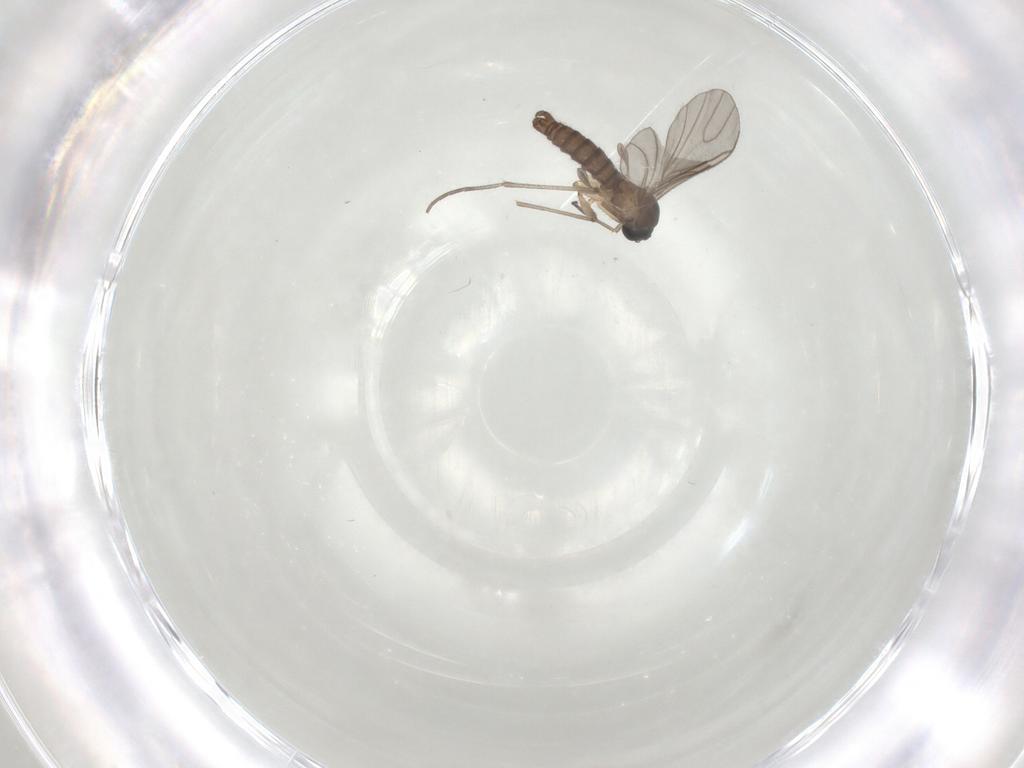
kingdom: Animalia
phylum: Arthropoda
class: Insecta
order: Diptera
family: Sciaridae
